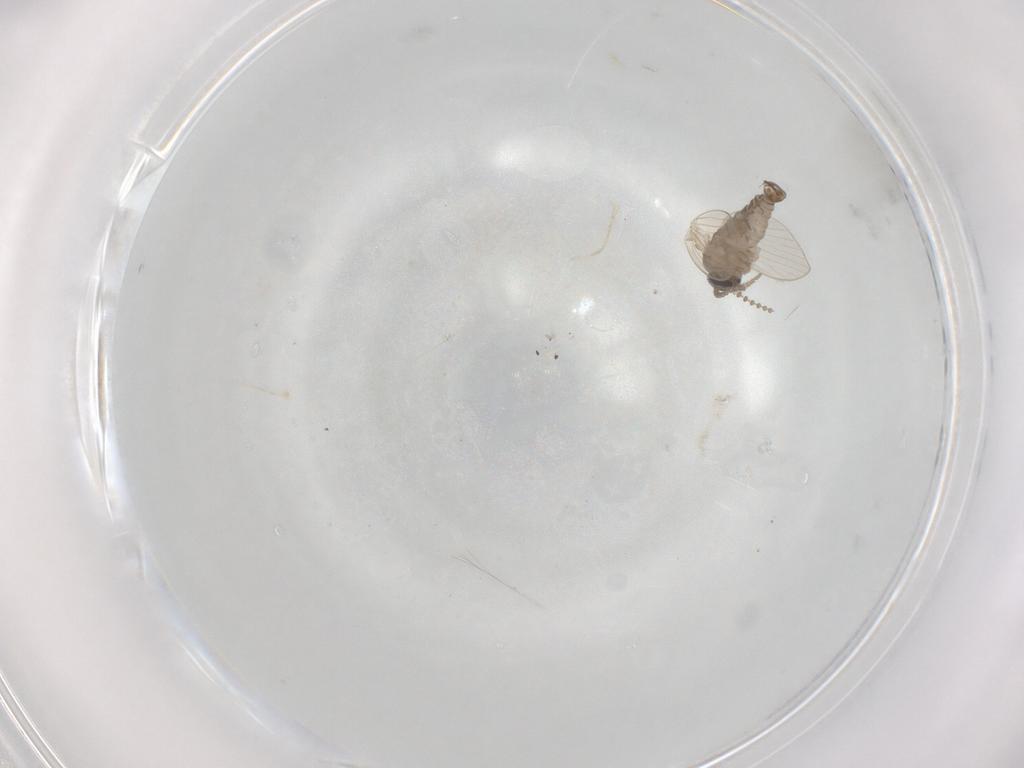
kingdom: Animalia
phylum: Arthropoda
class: Insecta
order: Diptera
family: Psychodidae
